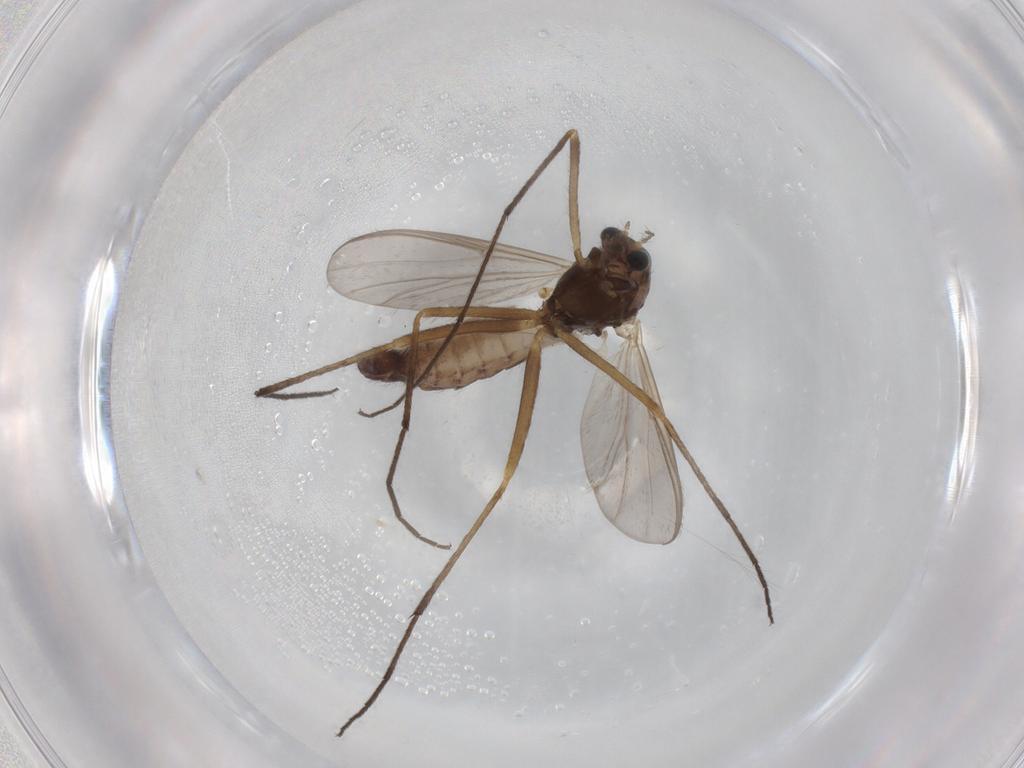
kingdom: Animalia
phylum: Arthropoda
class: Insecta
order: Diptera
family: Chironomidae
